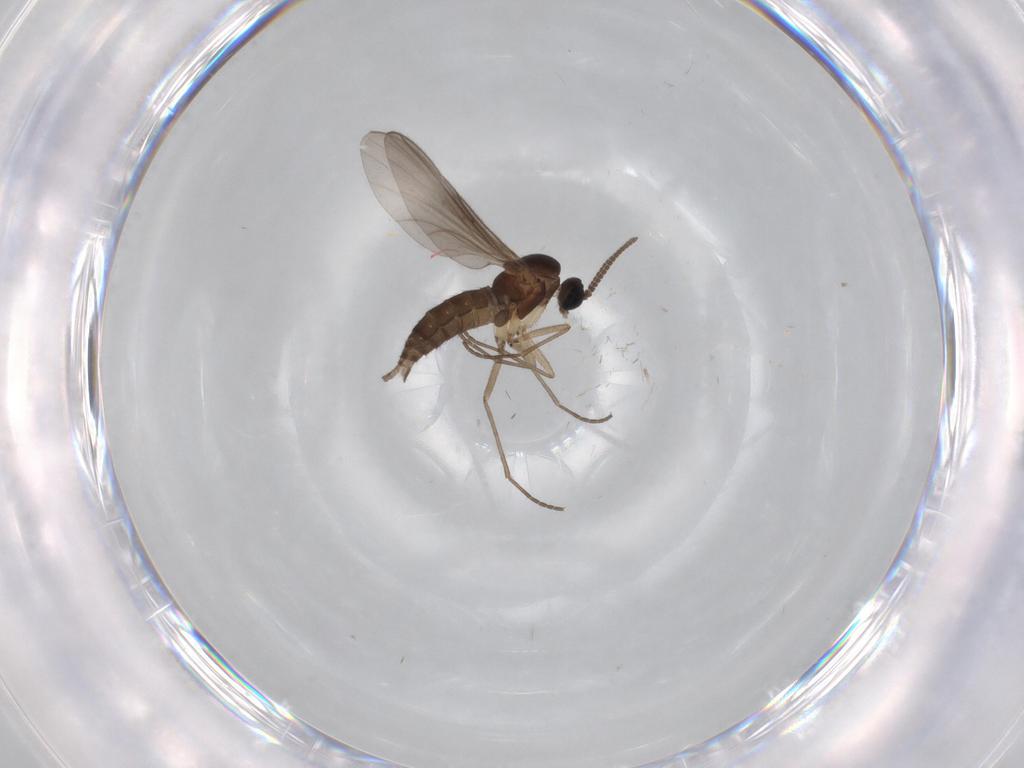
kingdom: Animalia
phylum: Arthropoda
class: Insecta
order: Diptera
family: Sciaridae
